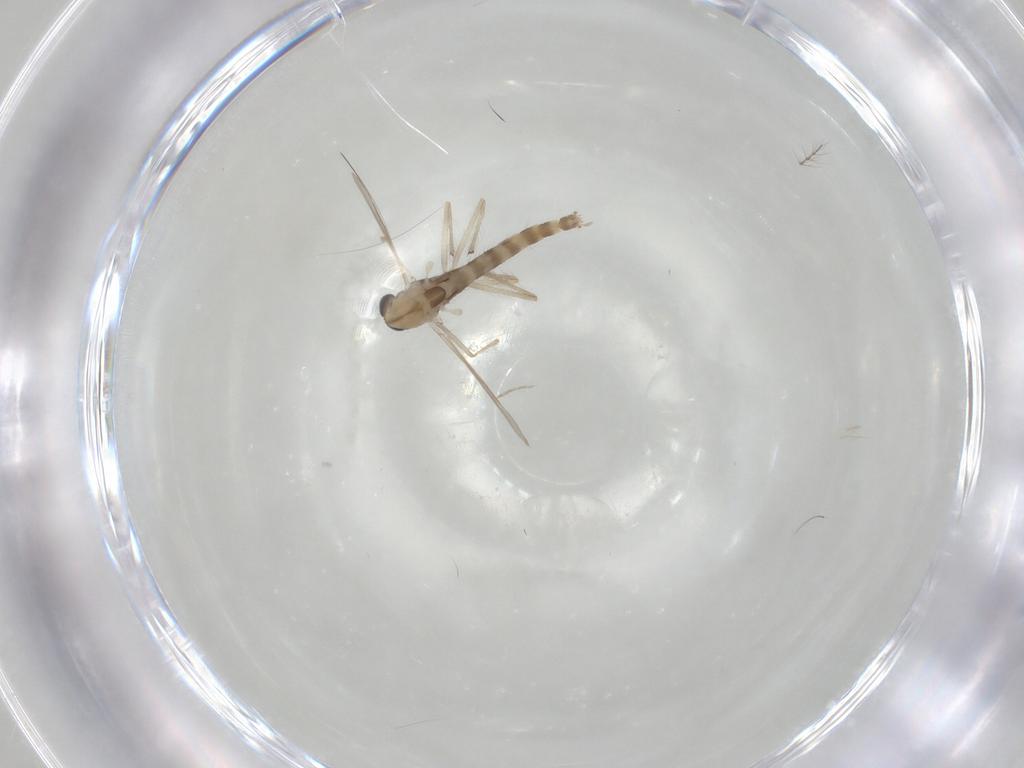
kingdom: Animalia
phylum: Arthropoda
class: Insecta
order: Diptera
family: Chironomidae
